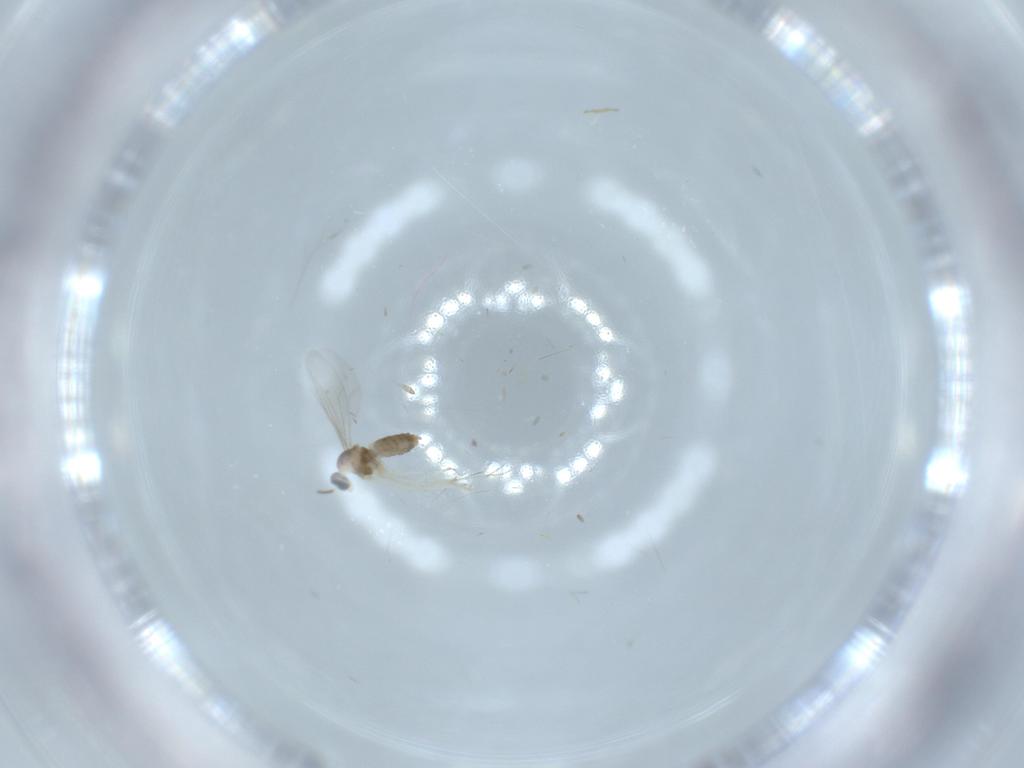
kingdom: Animalia
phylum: Arthropoda
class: Insecta
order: Diptera
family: Cecidomyiidae
